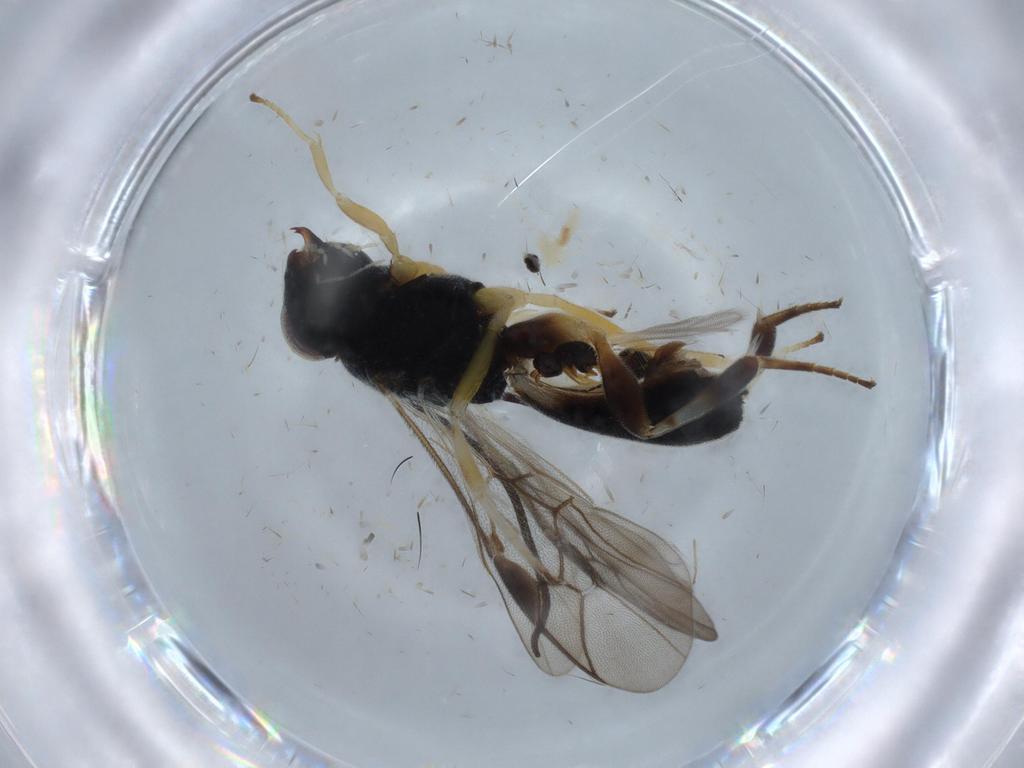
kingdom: Animalia
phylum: Arthropoda
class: Insecta
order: Hymenoptera
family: Braconidae
